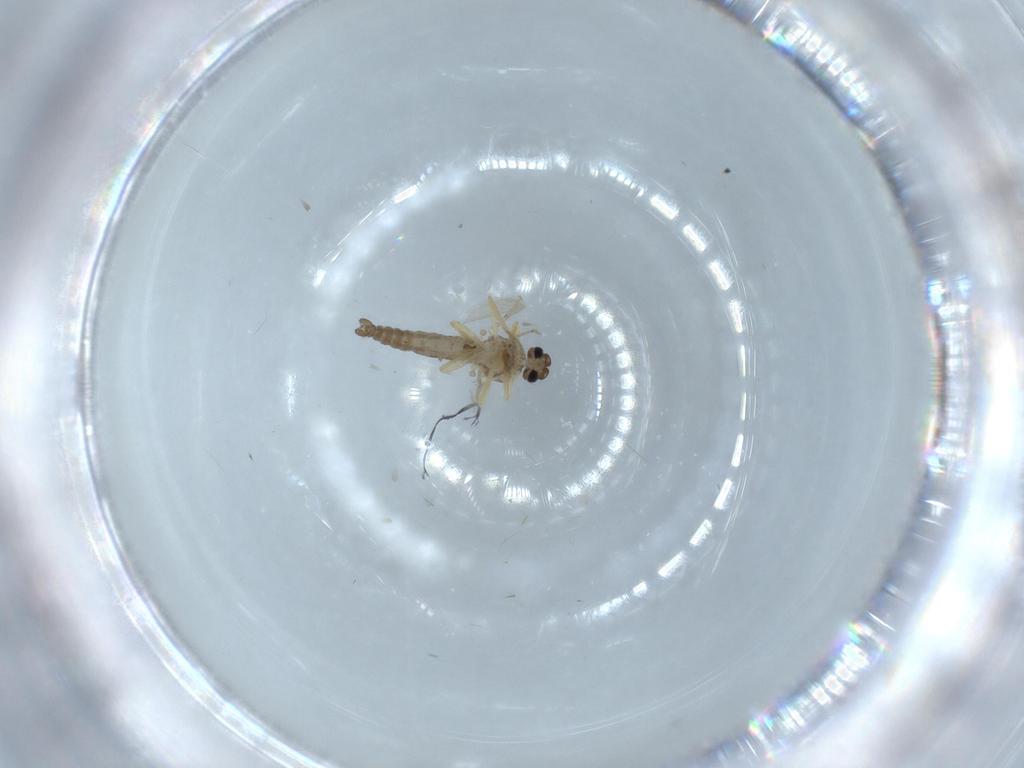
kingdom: Animalia
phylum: Arthropoda
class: Insecta
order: Diptera
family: Ceratopogonidae
